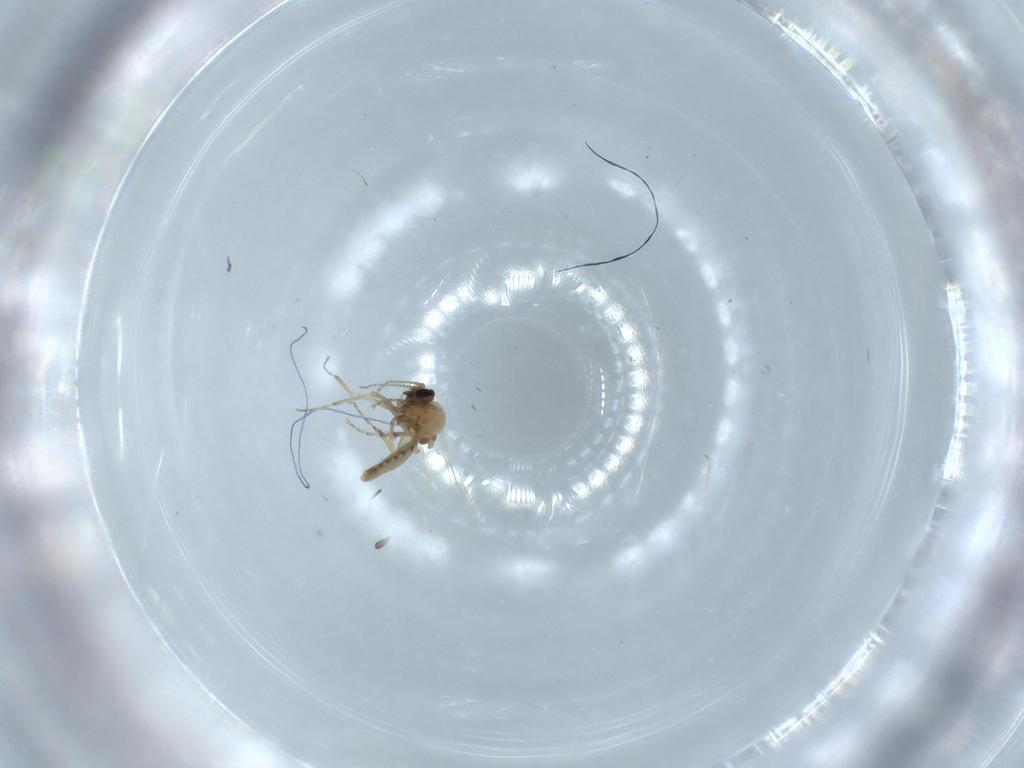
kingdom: Animalia
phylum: Arthropoda
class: Insecta
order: Diptera
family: Ceratopogonidae
